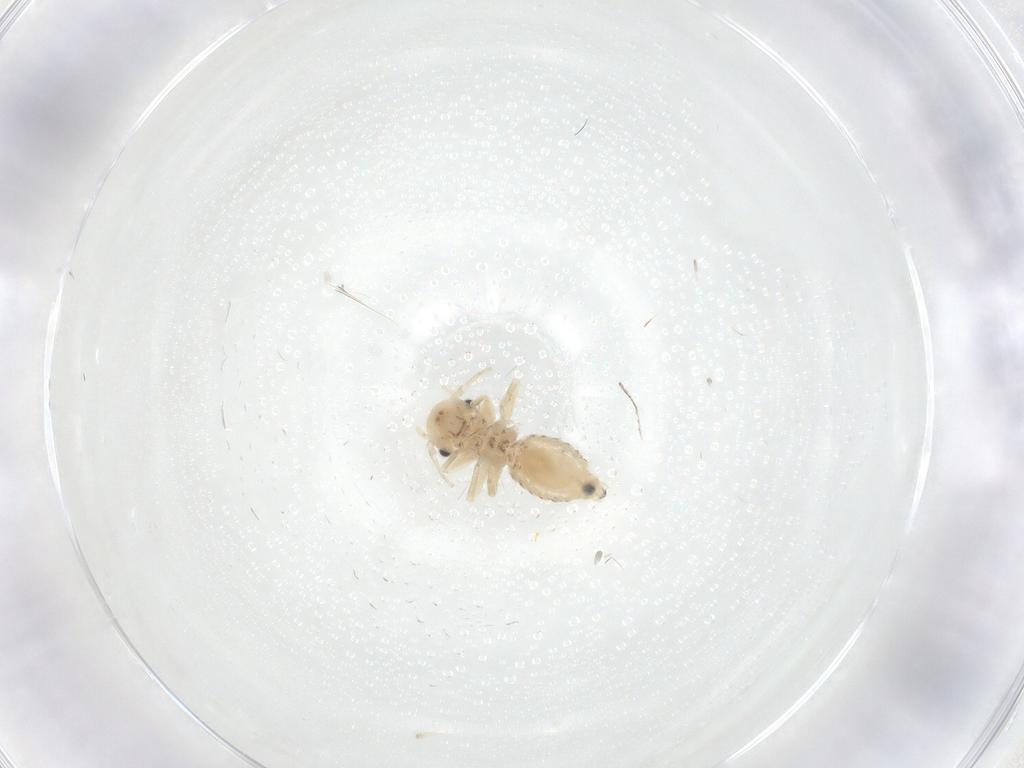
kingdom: Animalia
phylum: Arthropoda
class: Insecta
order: Psocodea
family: Myopsocidae
